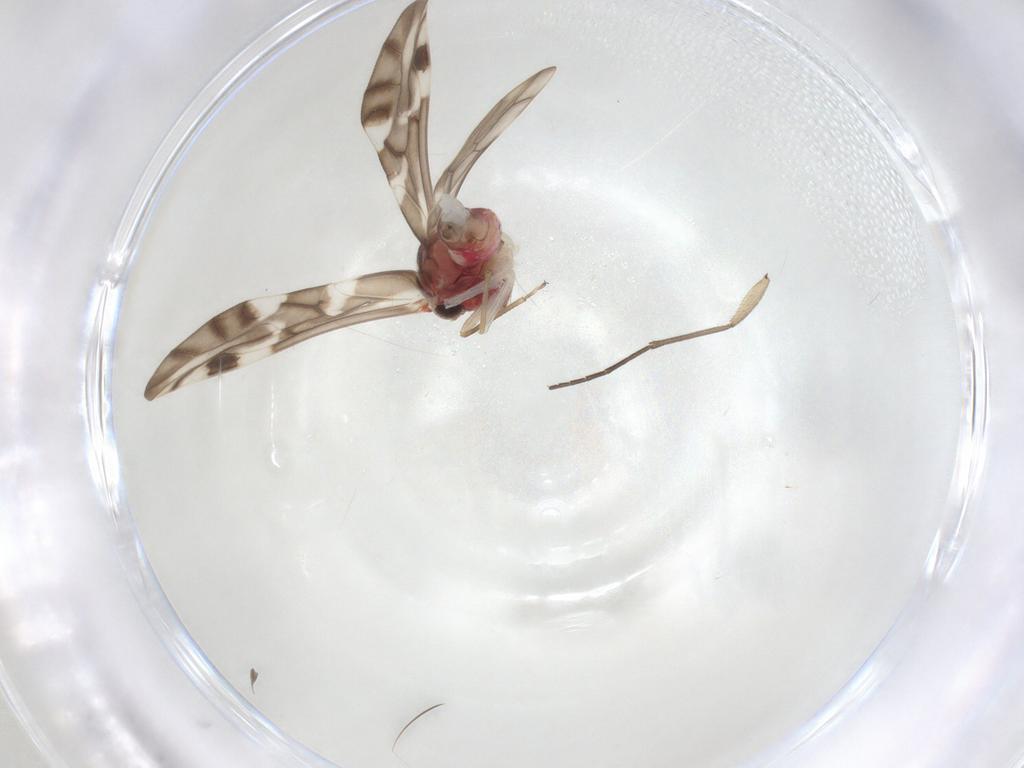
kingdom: Animalia
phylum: Arthropoda
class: Insecta
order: Psocodea
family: Caeciliusidae
